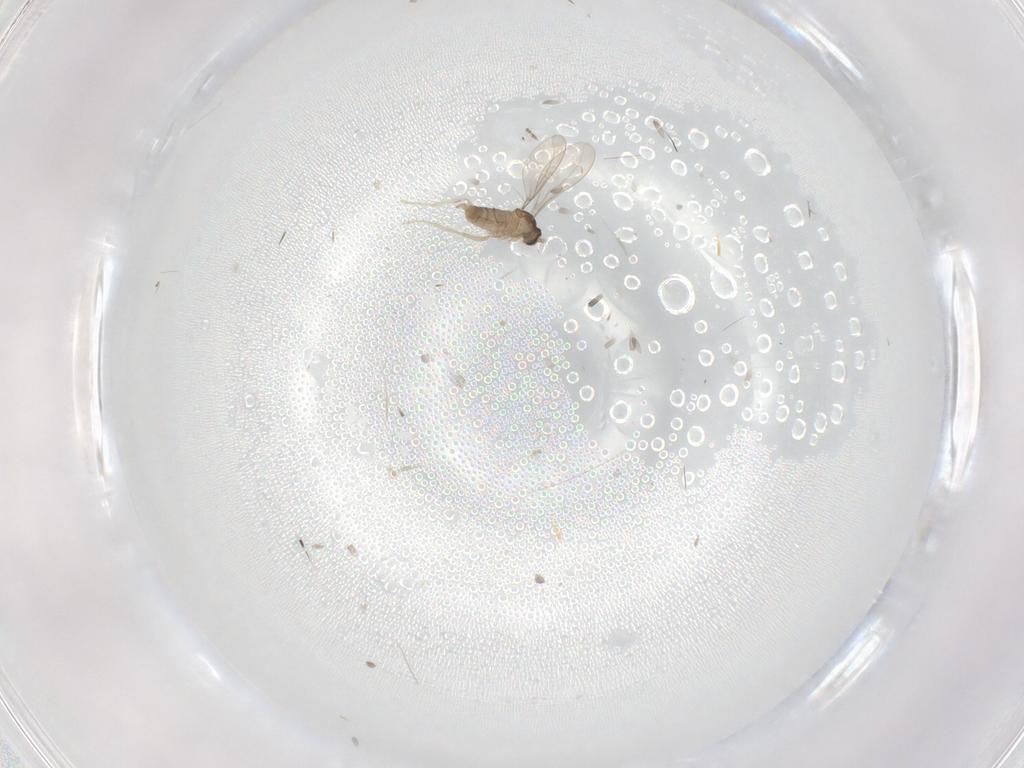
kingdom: Animalia
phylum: Arthropoda
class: Insecta
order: Diptera
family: Cecidomyiidae
